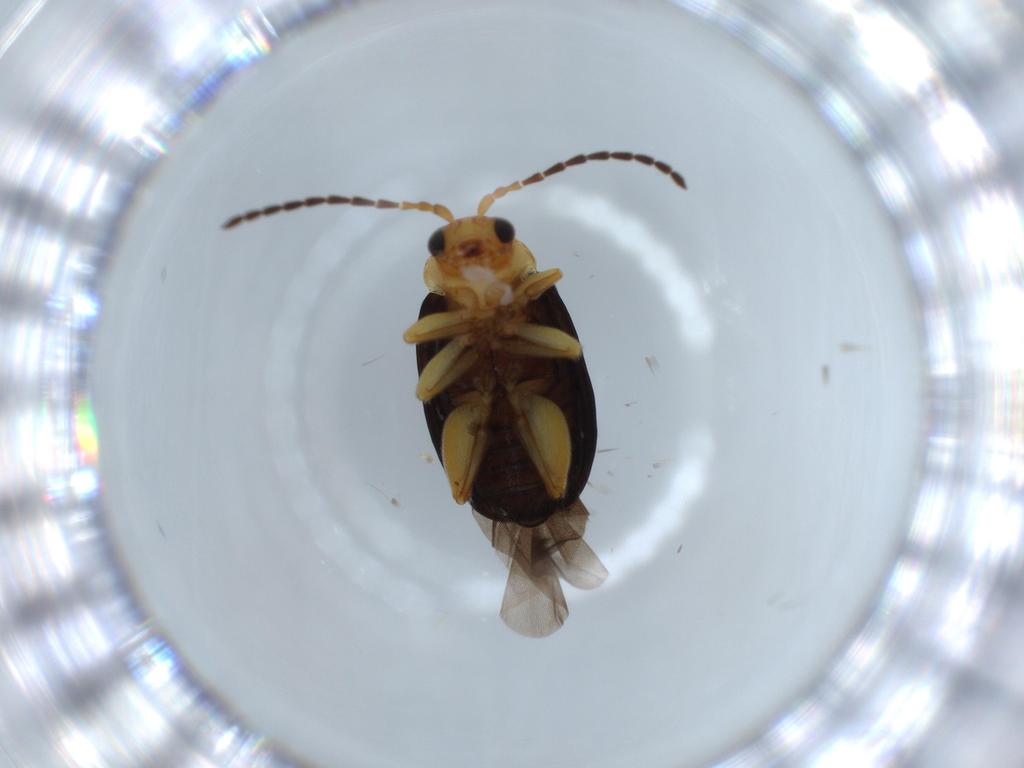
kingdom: Animalia
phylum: Arthropoda
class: Insecta
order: Coleoptera
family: Chrysomelidae
